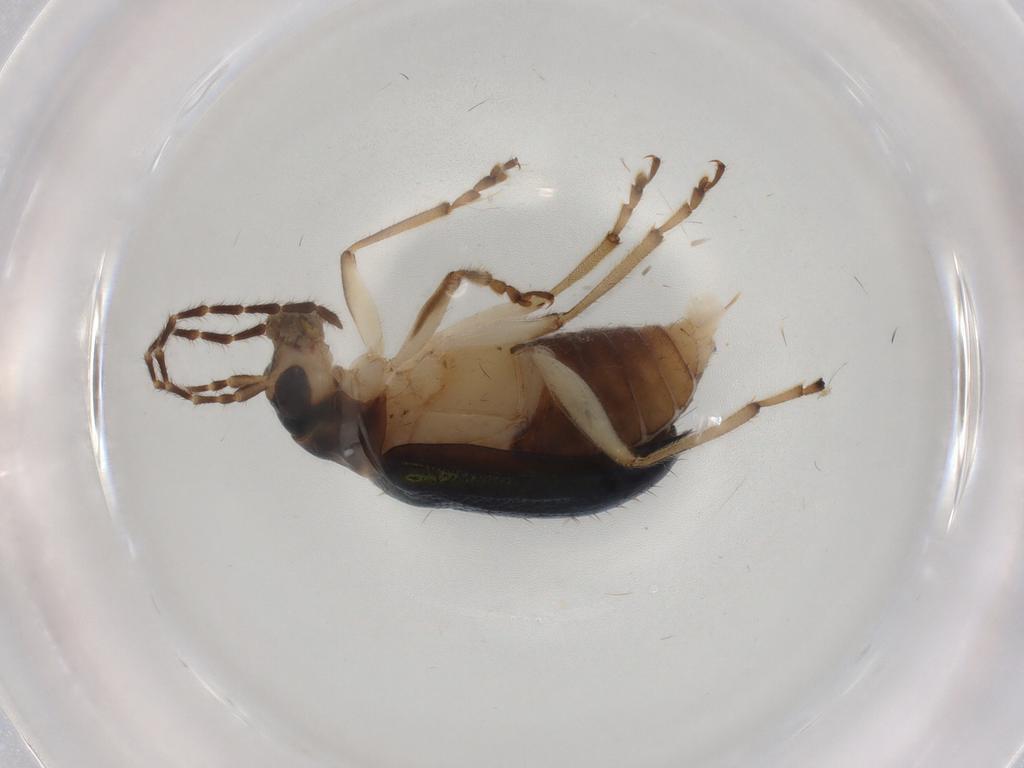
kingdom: Animalia
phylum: Arthropoda
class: Insecta
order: Coleoptera
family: Chrysomelidae
